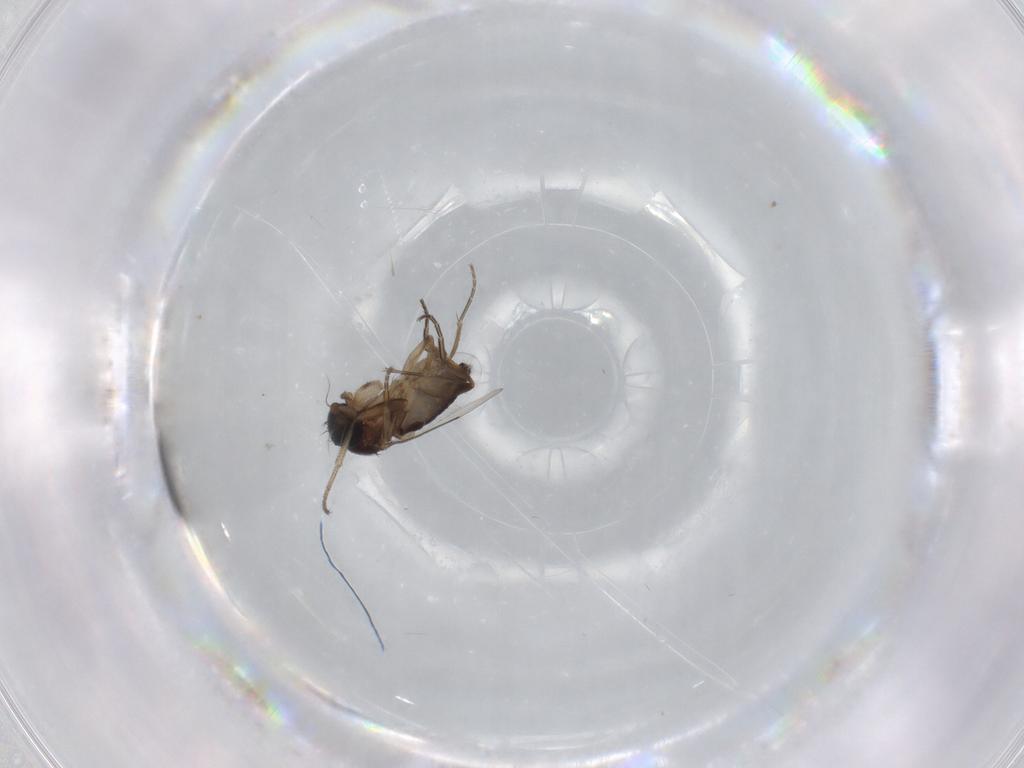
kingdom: Animalia
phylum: Arthropoda
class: Insecta
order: Diptera
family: Phoridae
